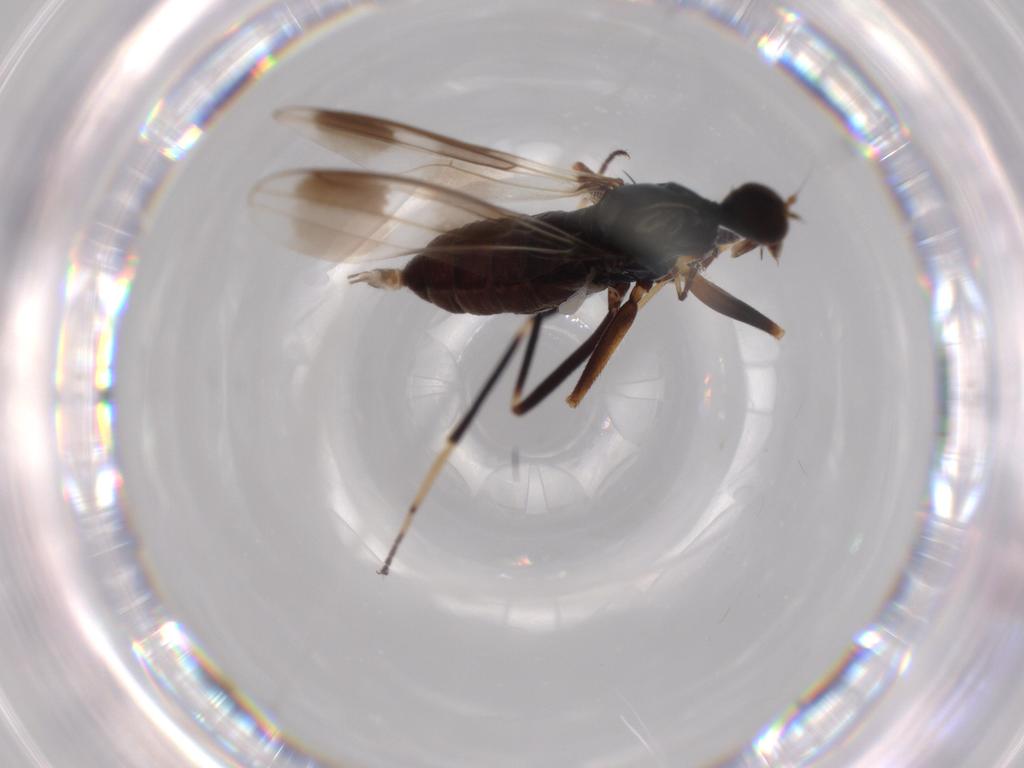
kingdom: Animalia
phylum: Arthropoda
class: Insecta
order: Diptera
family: Hybotidae
